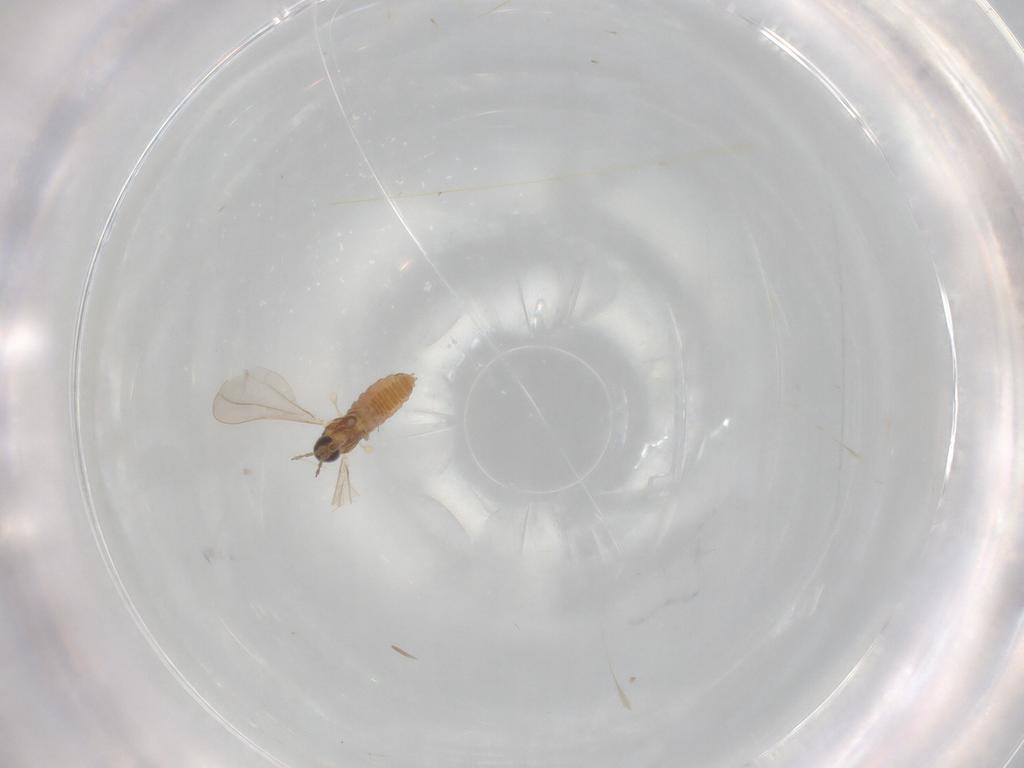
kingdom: Animalia
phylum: Arthropoda
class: Insecta
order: Diptera
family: Cecidomyiidae
